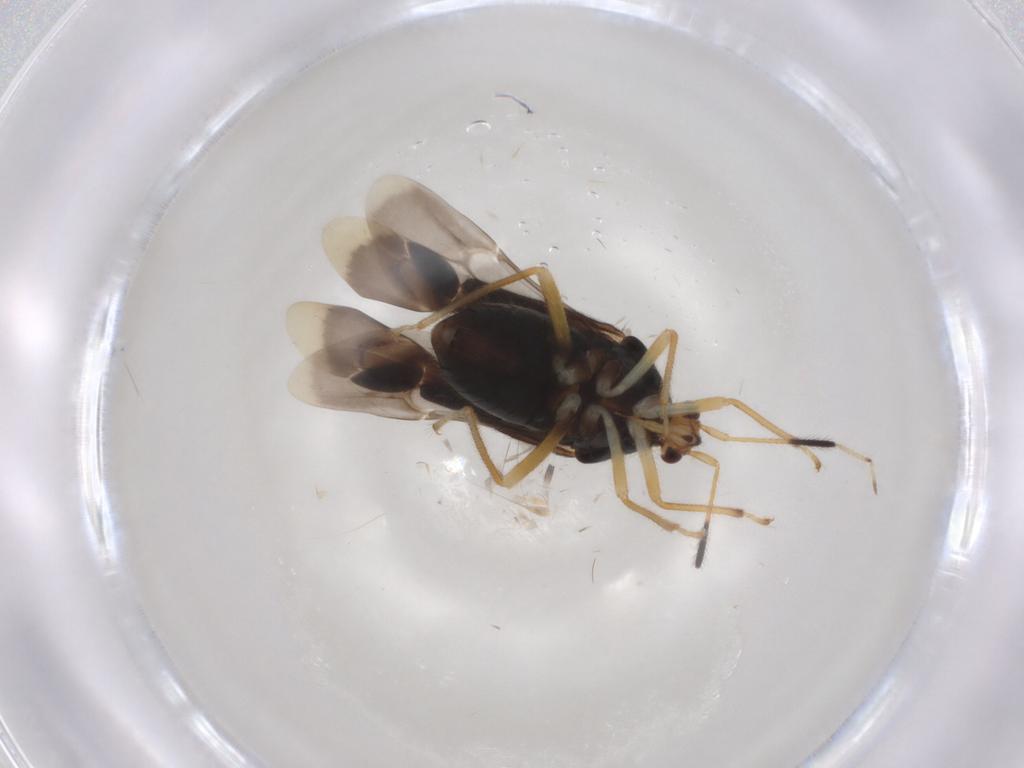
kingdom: Animalia
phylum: Arthropoda
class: Insecta
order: Hemiptera
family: Miridae
